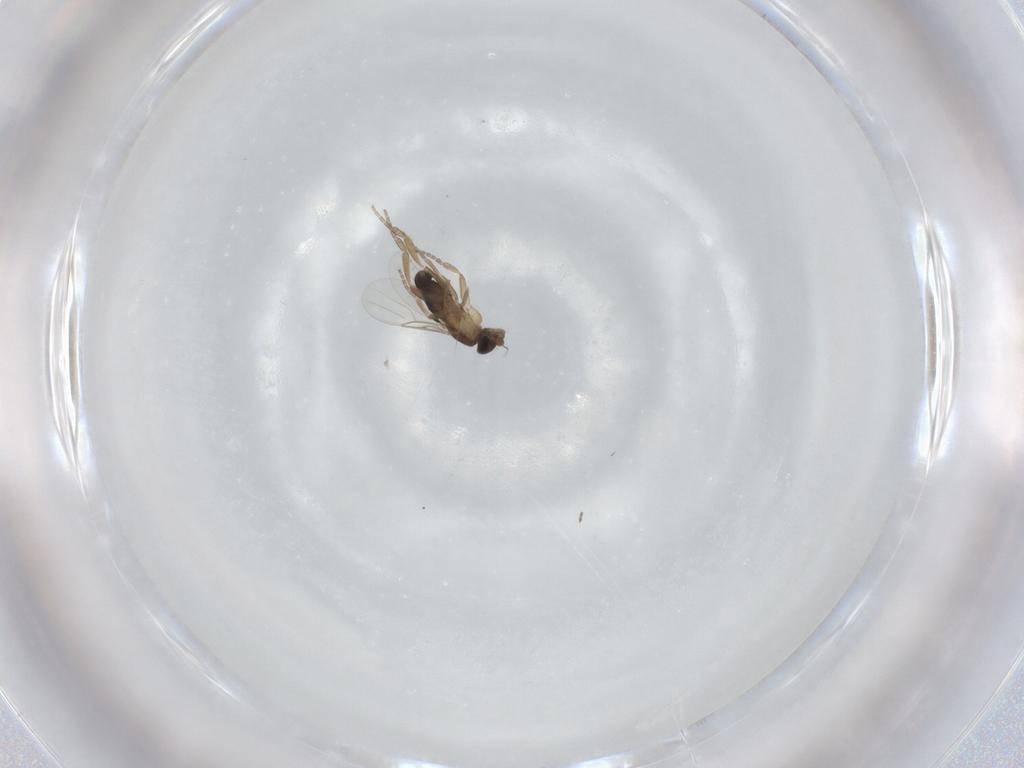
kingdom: Animalia
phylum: Arthropoda
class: Insecta
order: Diptera
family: Chironomidae
